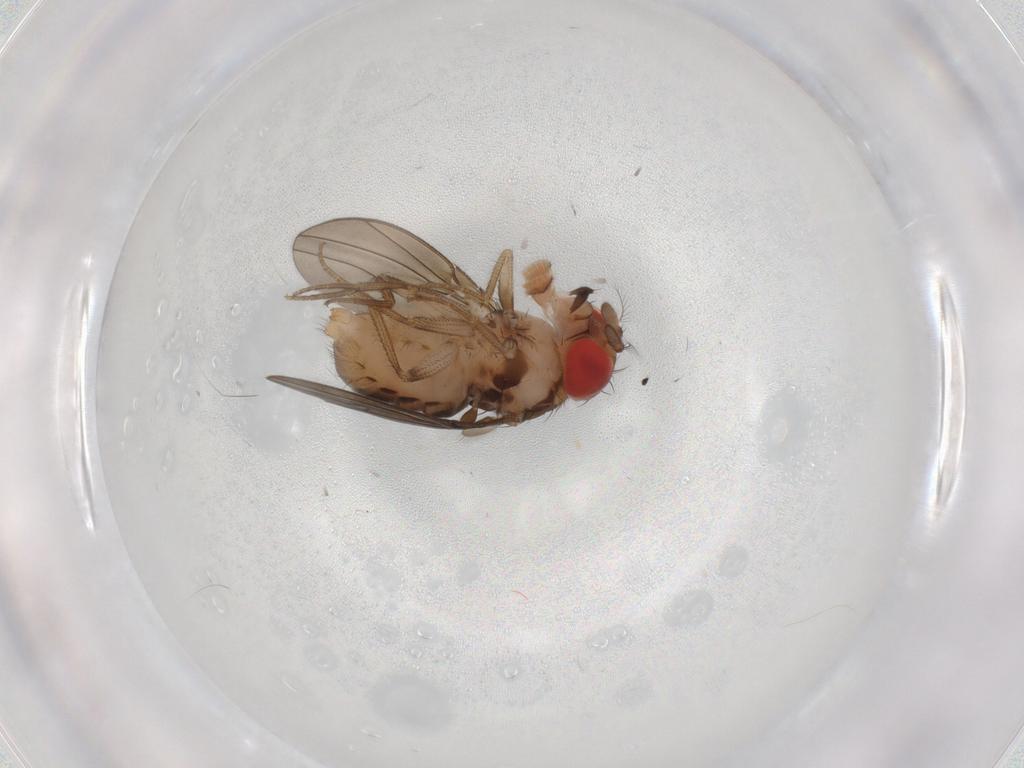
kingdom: Animalia
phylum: Arthropoda
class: Insecta
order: Diptera
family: Drosophilidae
